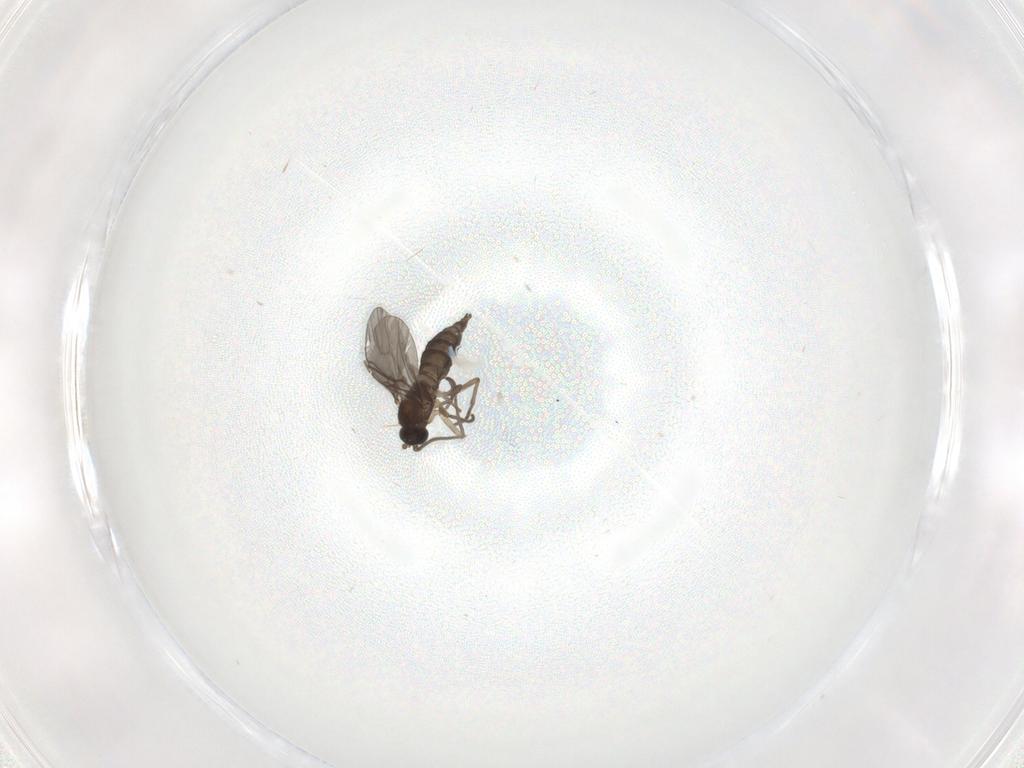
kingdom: Animalia
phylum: Arthropoda
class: Insecta
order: Diptera
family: Sciaridae
